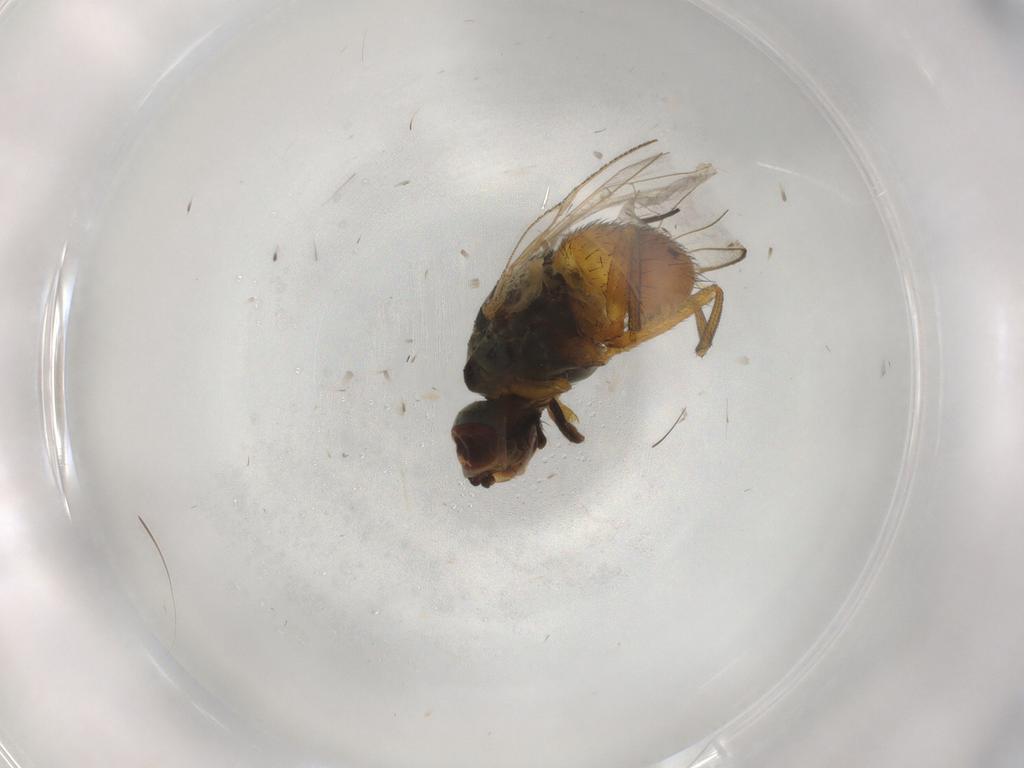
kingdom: Animalia
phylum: Arthropoda
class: Insecta
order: Diptera
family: Muscidae
